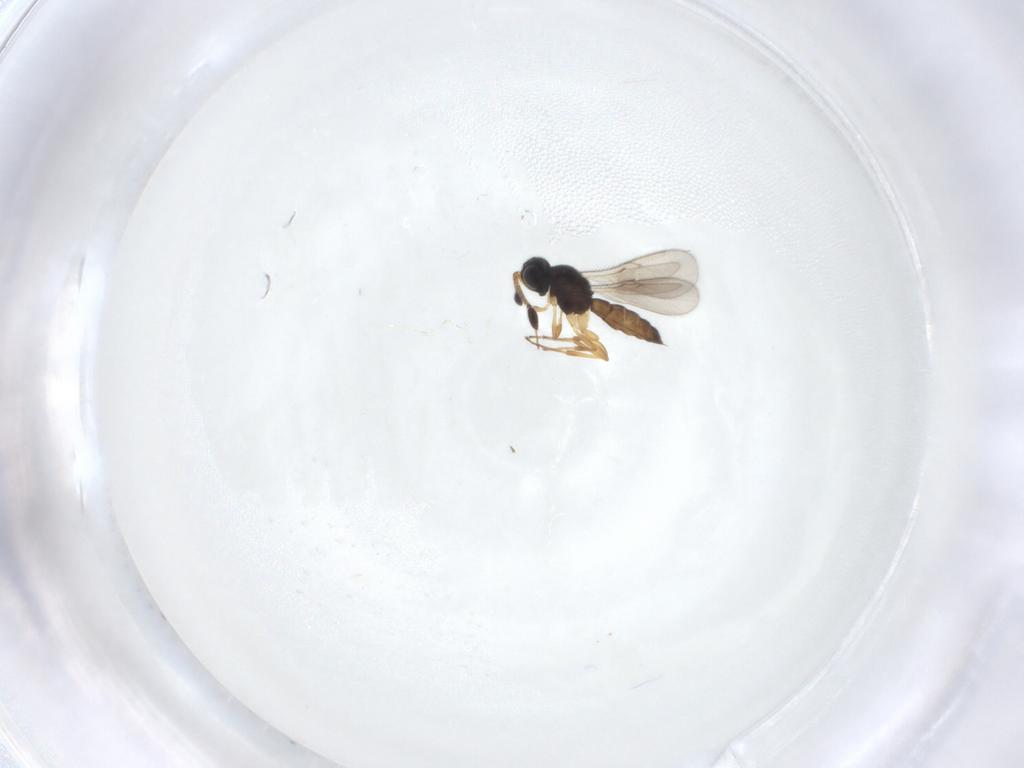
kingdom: Animalia
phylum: Arthropoda
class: Insecta
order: Hymenoptera
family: Scelionidae
